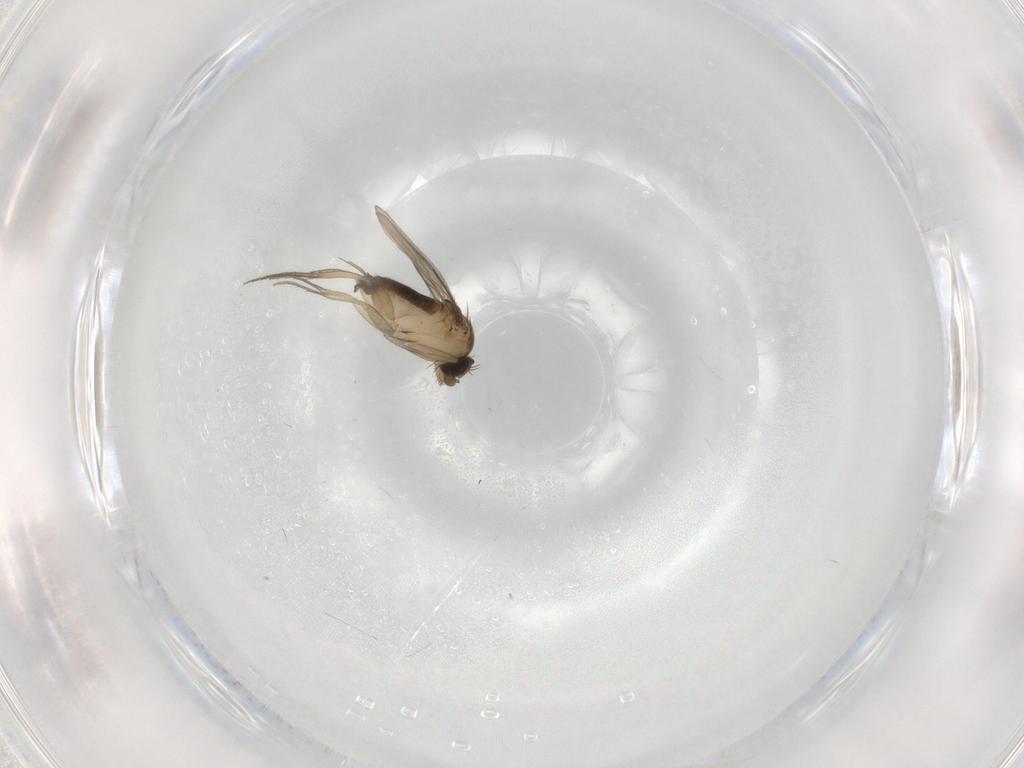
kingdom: Animalia
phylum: Arthropoda
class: Insecta
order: Diptera
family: Phoridae
